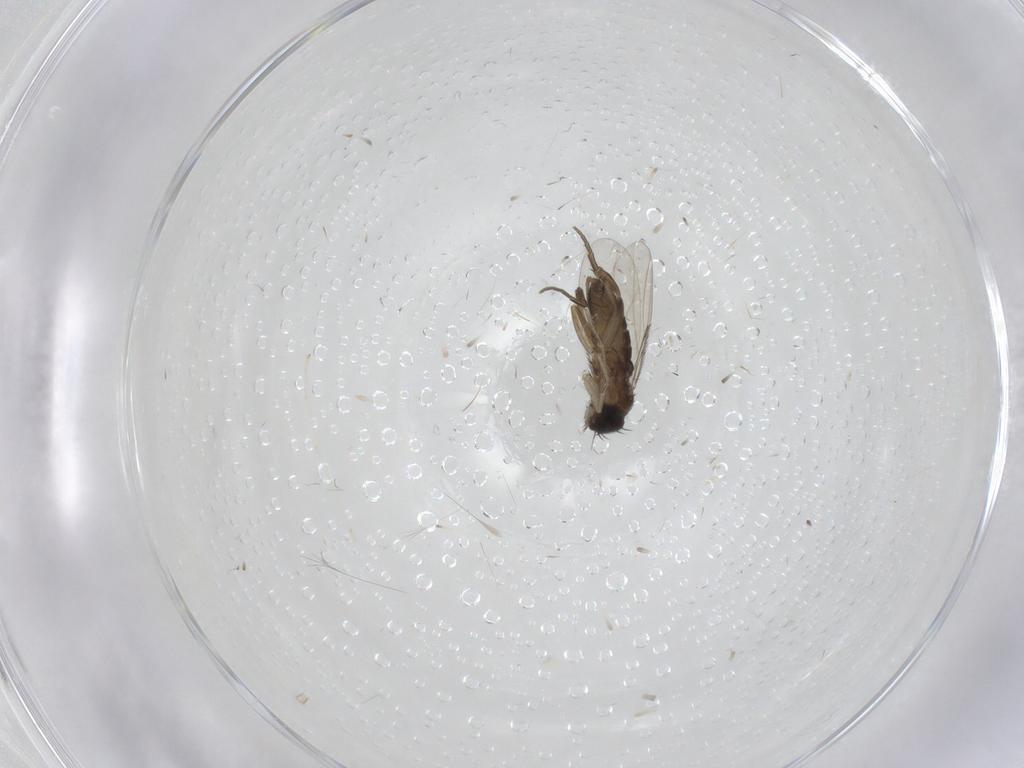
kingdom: Animalia
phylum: Arthropoda
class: Insecta
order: Diptera
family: Cecidomyiidae
